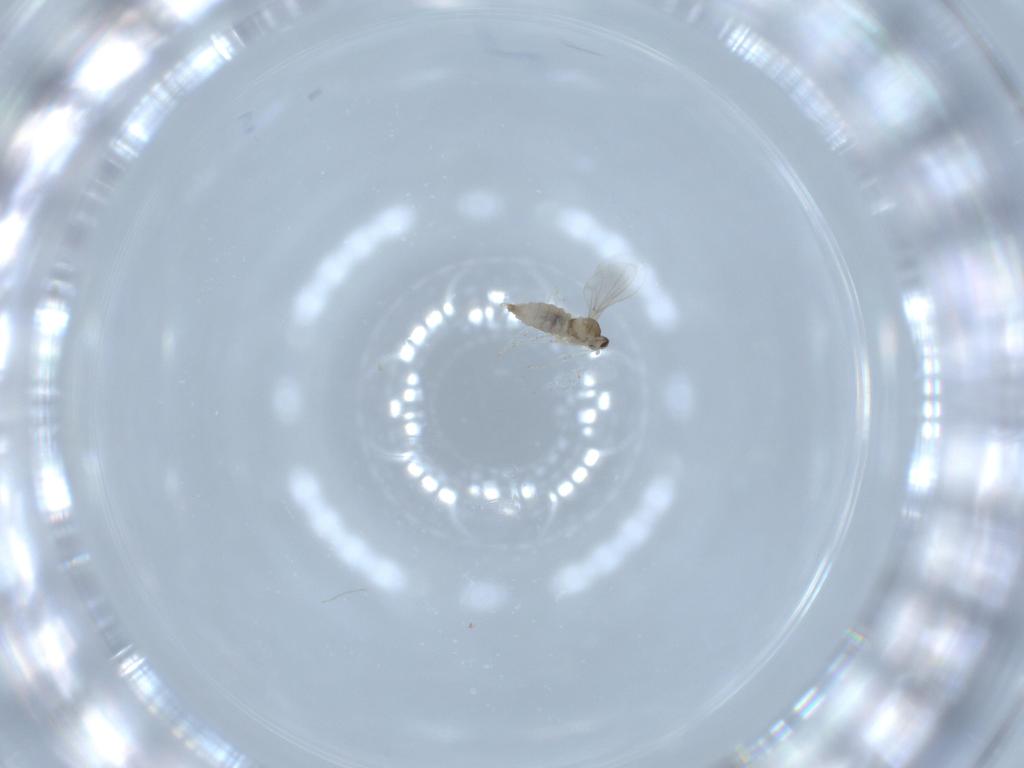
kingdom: Animalia
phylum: Arthropoda
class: Insecta
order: Diptera
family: Cecidomyiidae
